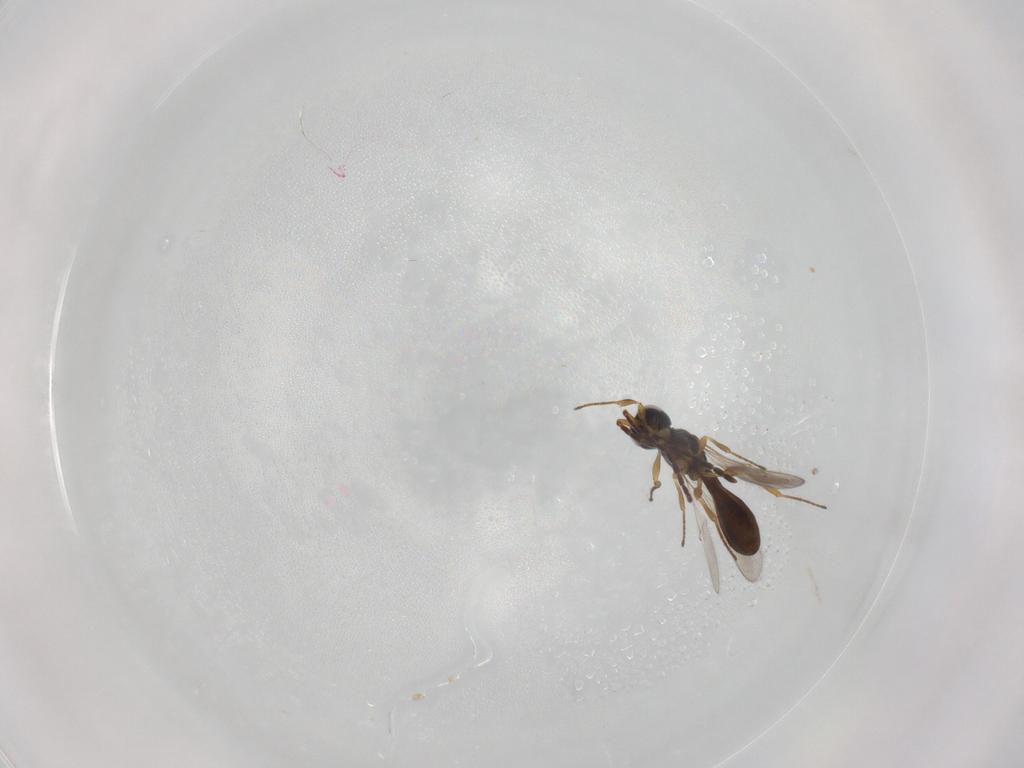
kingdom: Animalia
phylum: Arthropoda
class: Insecta
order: Hymenoptera
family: Scelionidae
